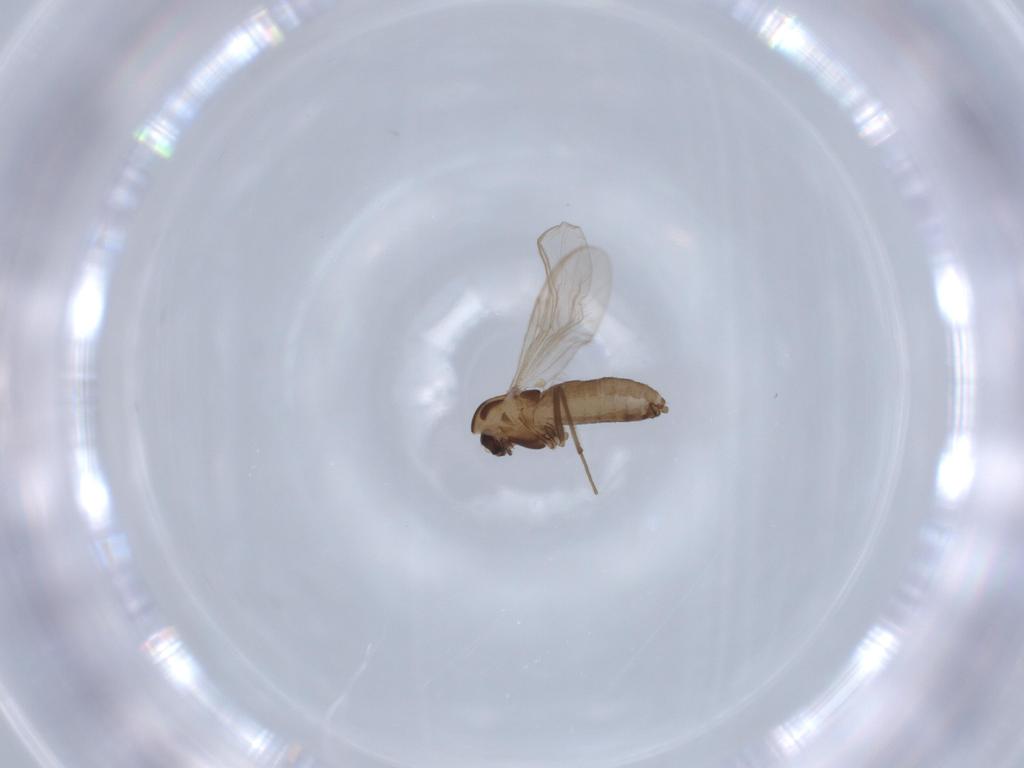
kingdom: Animalia
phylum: Arthropoda
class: Insecta
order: Diptera
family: Chironomidae
